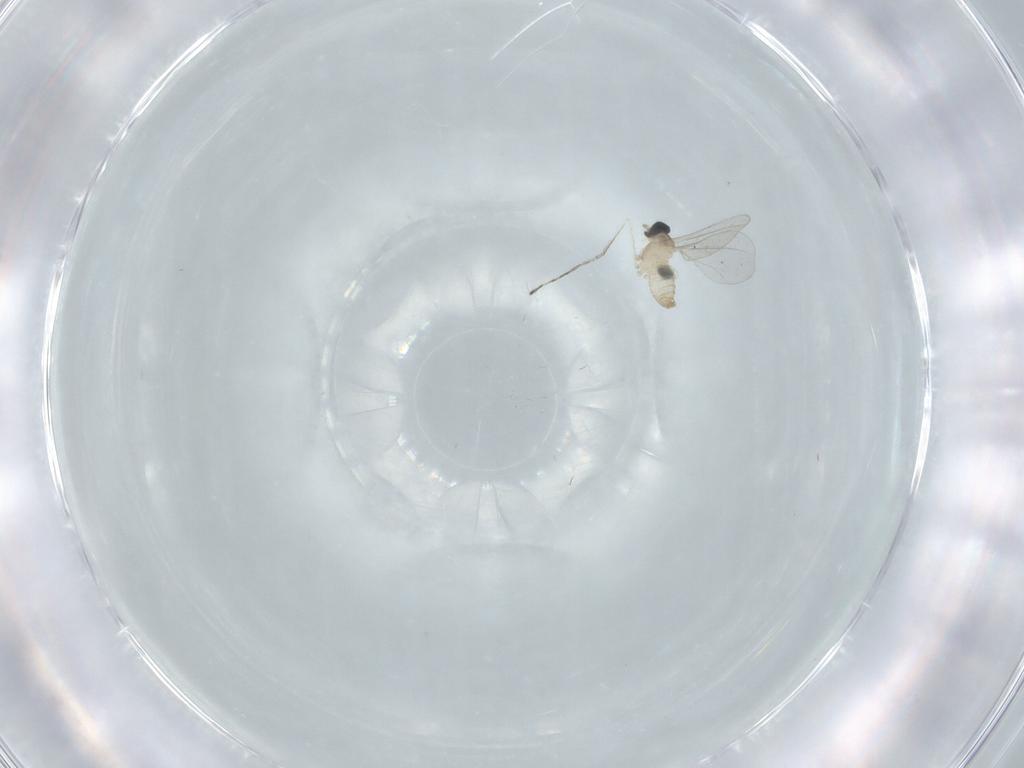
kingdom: Animalia
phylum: Arthropoda
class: Insecta
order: Diptera
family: Cecidomyiidae
